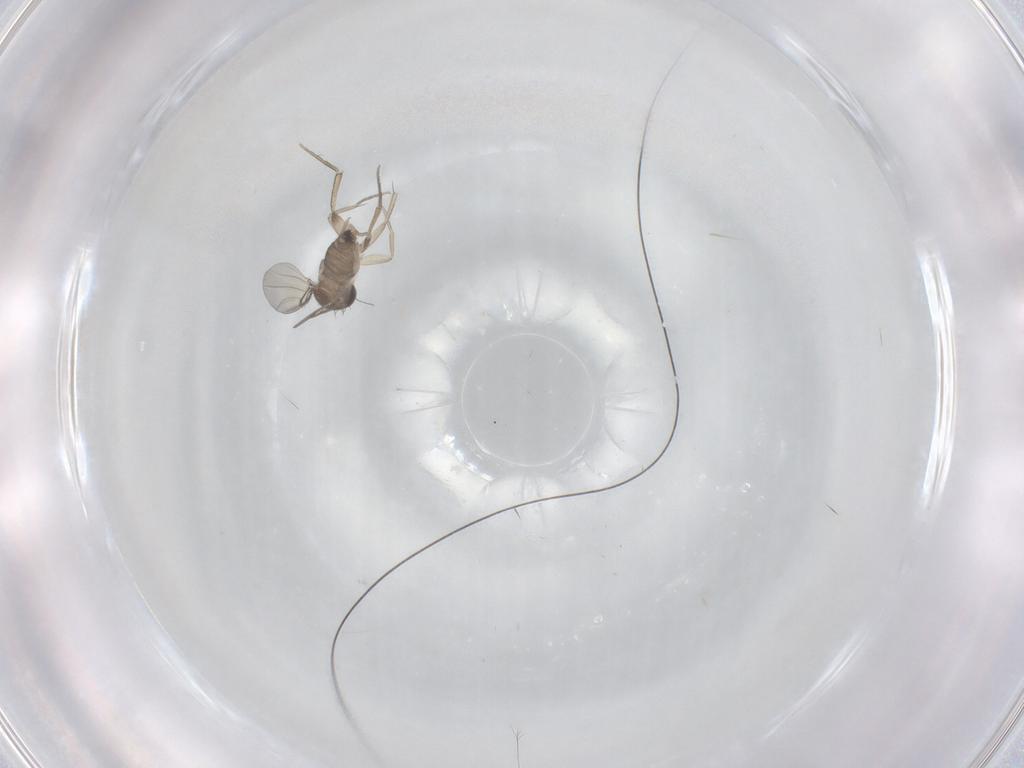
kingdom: Animalia
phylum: Arthropoda
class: Insecta
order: Diptera
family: Phoridae
